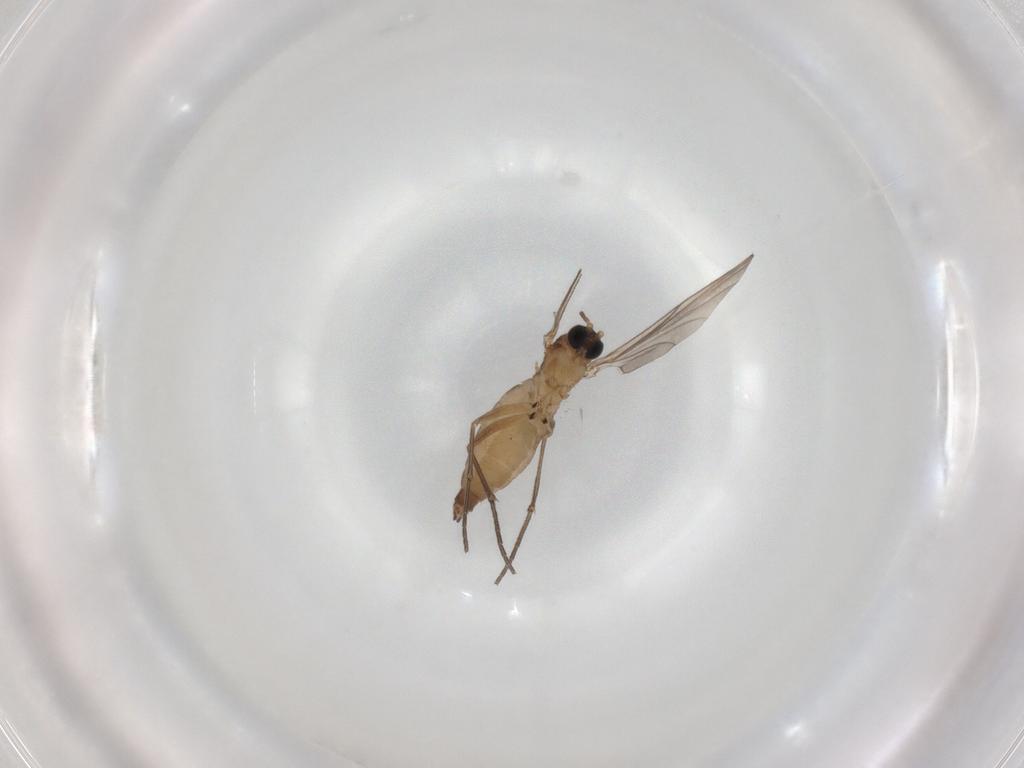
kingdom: Animalia
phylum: Arthropoda
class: Insecta
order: Diptera
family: Sciaridae
